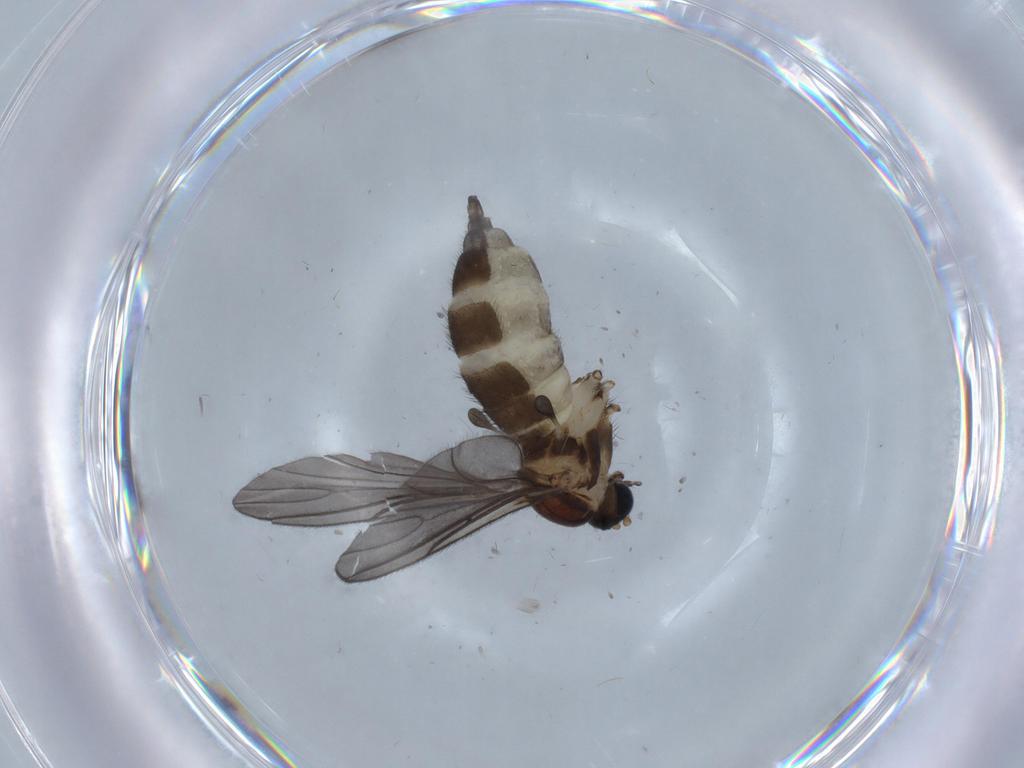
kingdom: Animalia
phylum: Arthropoda
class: Insecta
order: Diptera
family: Sciaridae
